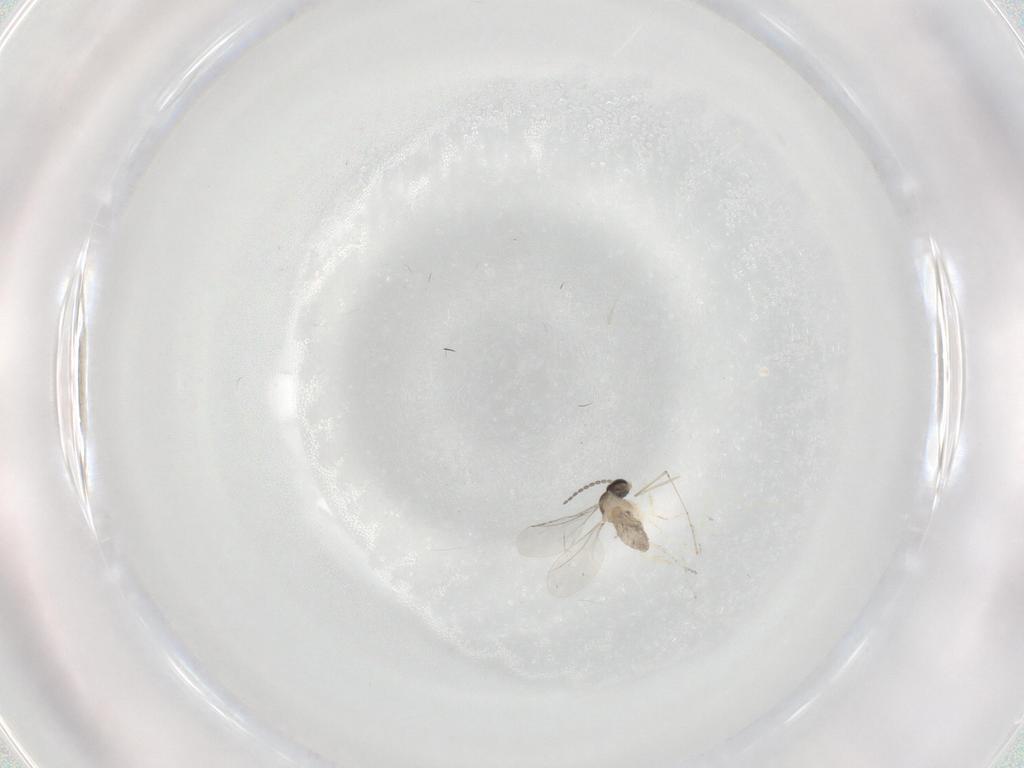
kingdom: Animalia
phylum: Arthropoda
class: Insecta
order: Diptera
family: Cecidomyiidae
